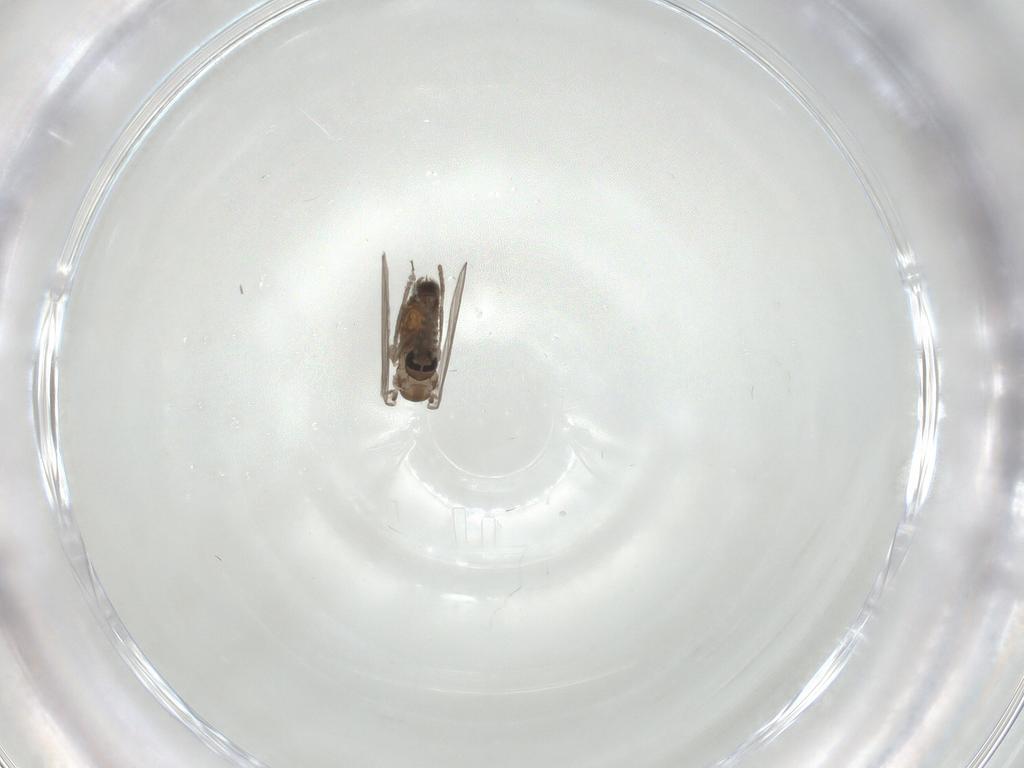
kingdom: Animalia
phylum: Arthropoda
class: Insecta
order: Diptera
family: Psychodidae
